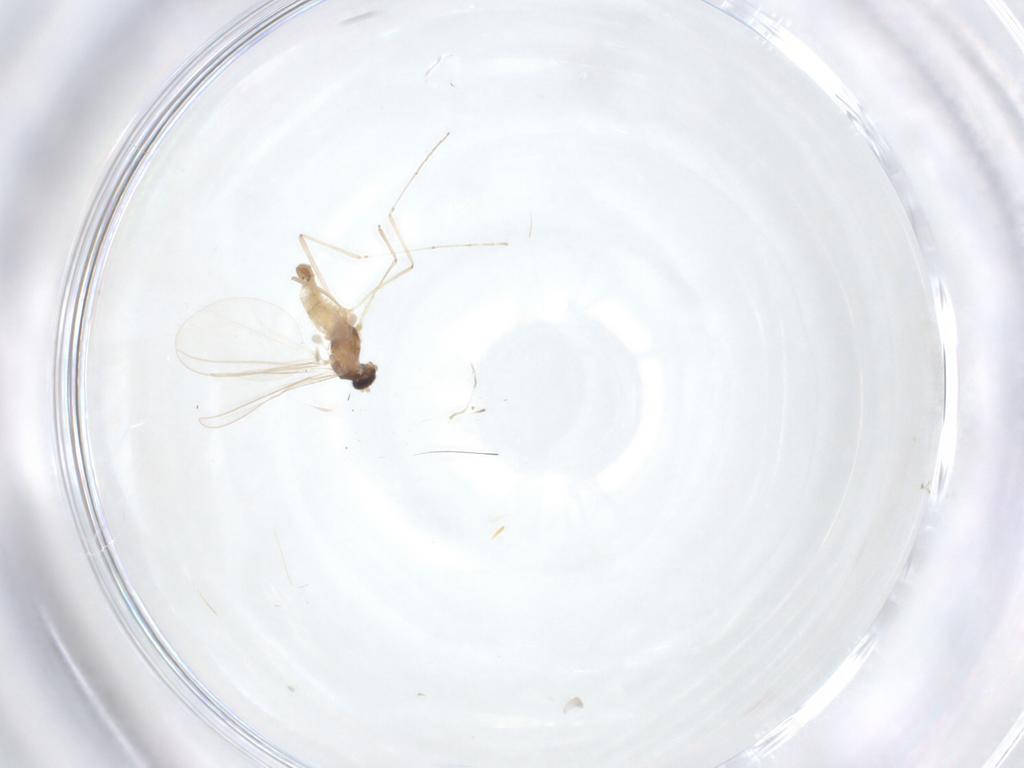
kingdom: Animalia
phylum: Arthropoda
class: Insecta
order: Diptera
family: Cecidomyiidae
